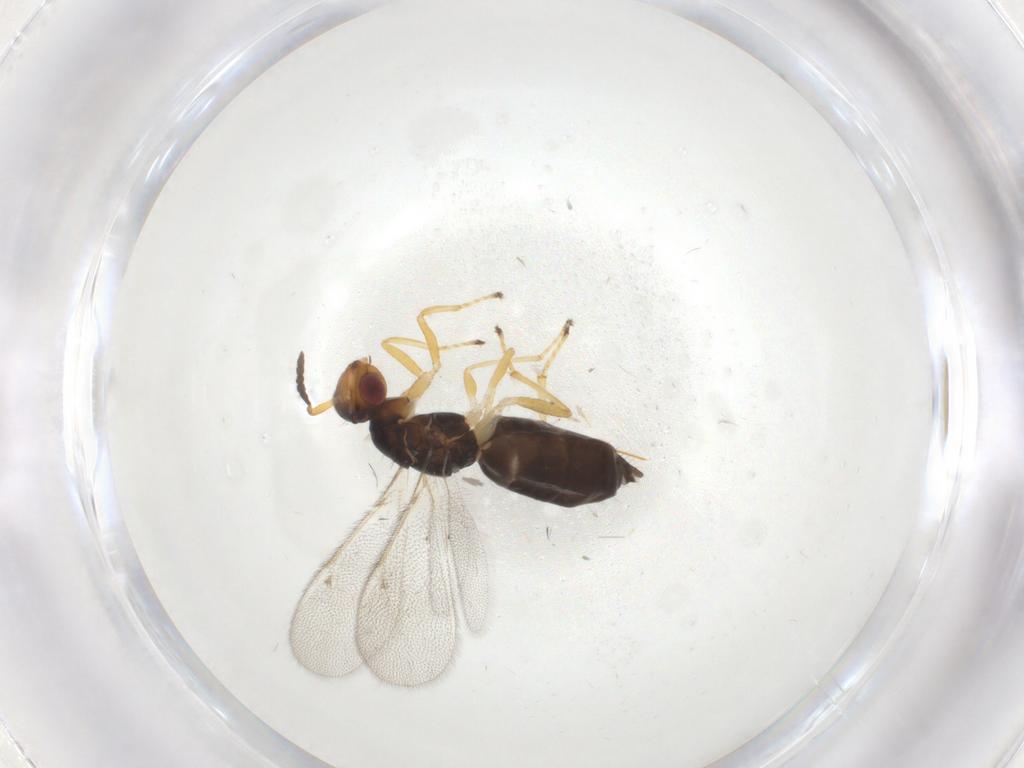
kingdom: Animalia
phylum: Arthropoda
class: Insecta
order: Hymenoptera
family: Eulophidae
